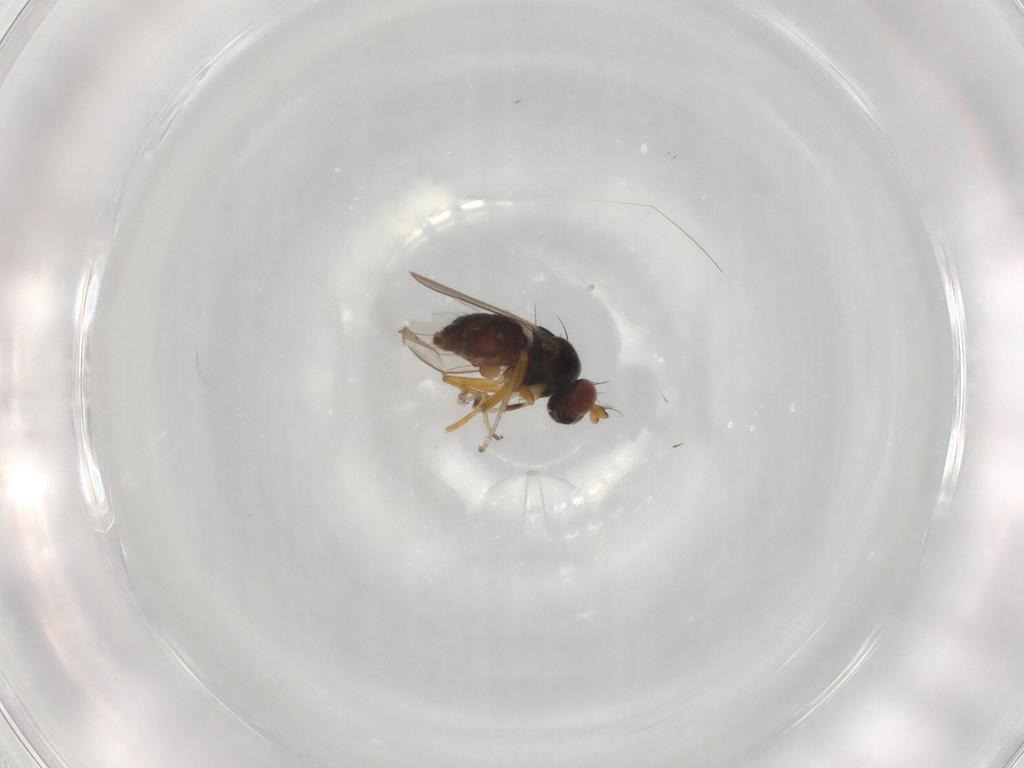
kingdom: Animalia
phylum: Arthropoda
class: Insecta
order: Diptera
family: Ephydridae
